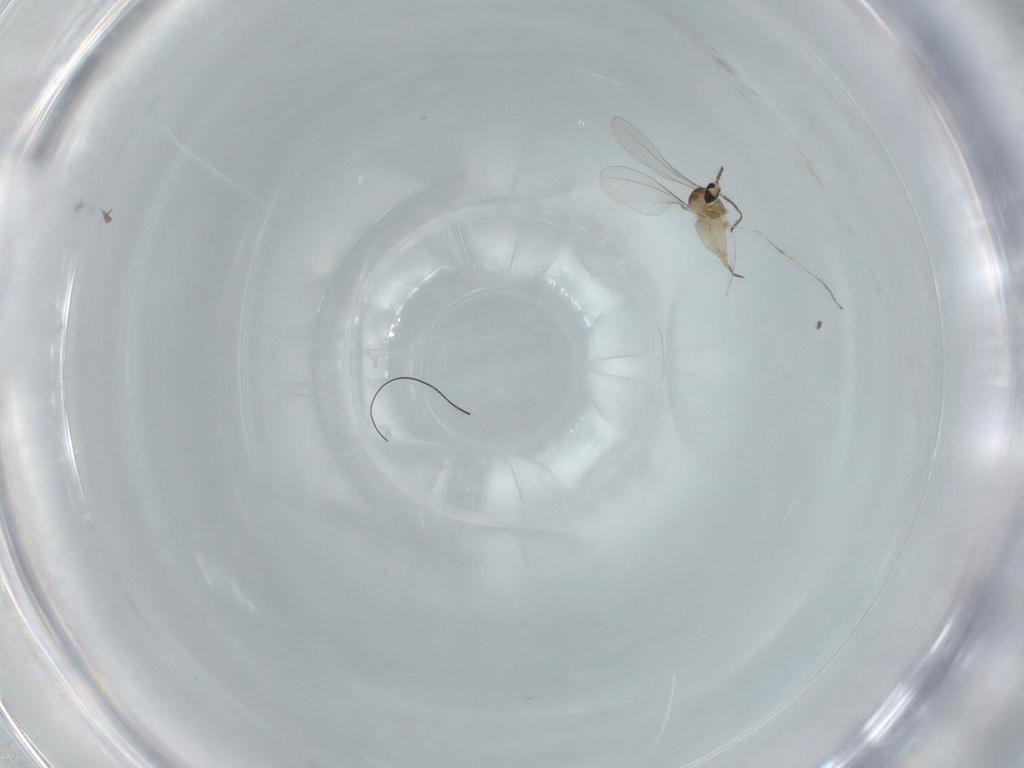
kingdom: Animalia
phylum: Arthropoda
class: Insecta
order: Diptera
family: Cecidomyiidae
